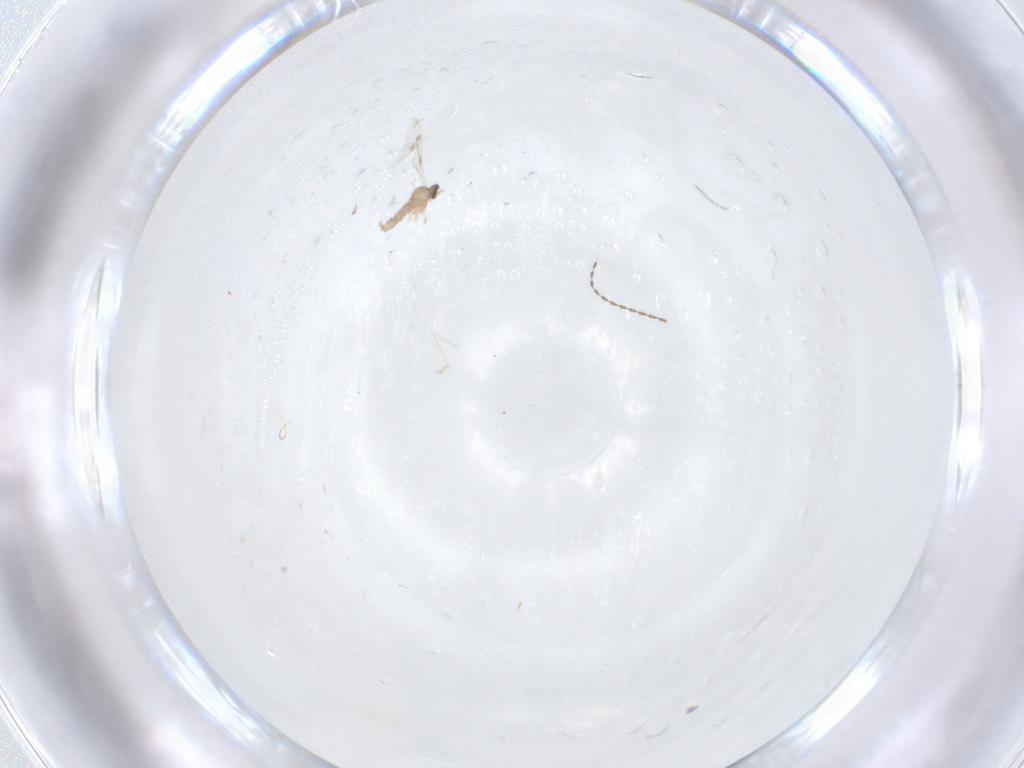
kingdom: Animalia
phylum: Arthropoda
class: Insecta
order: Diptera
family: Cecidomyiidae
